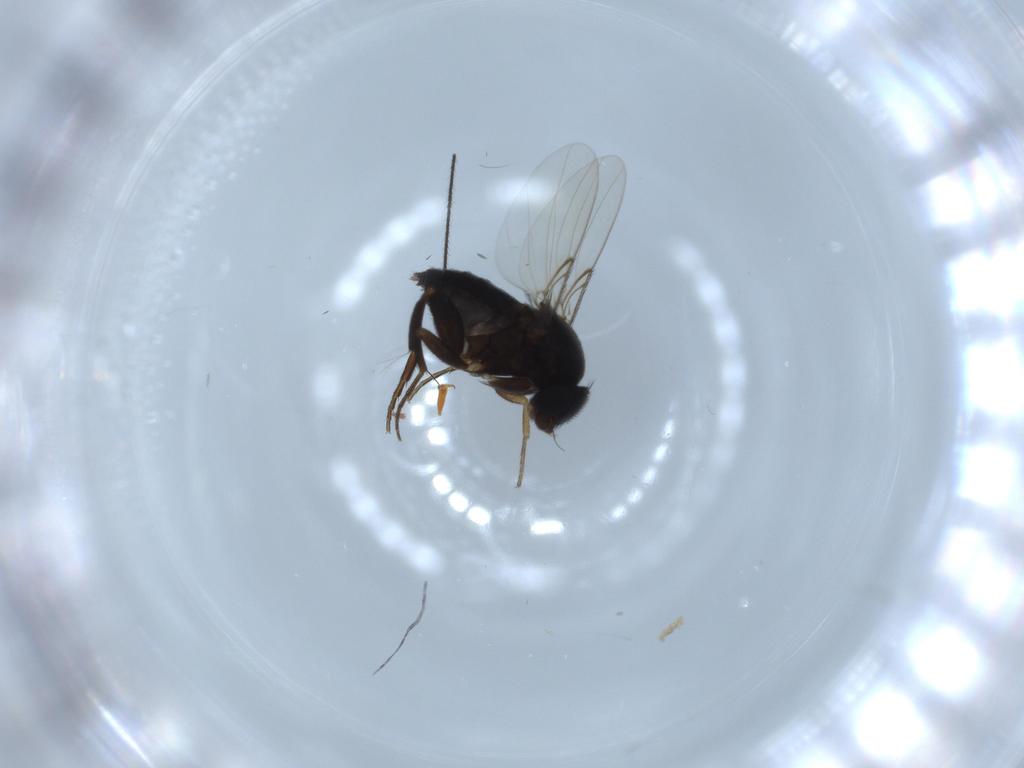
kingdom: Animalia
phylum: Arthropoda
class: Insecta
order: Diptera
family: Phoridae
